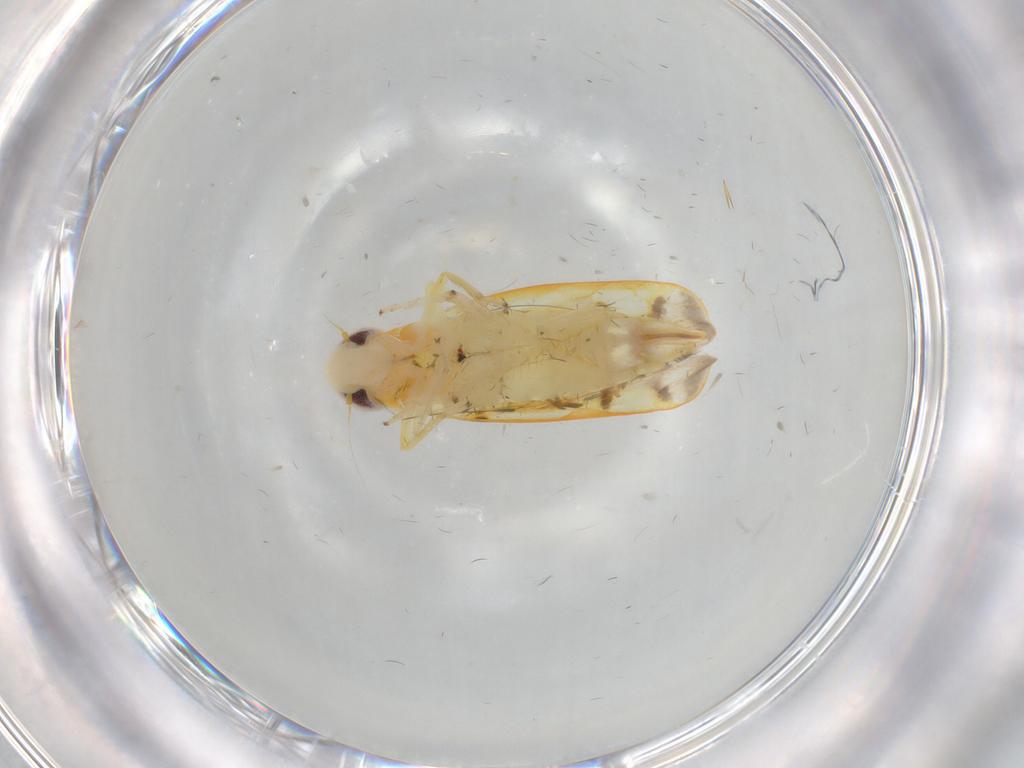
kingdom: Animalia
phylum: Arthropoda
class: Insecta
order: Hemiptera
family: Cicadellidae
